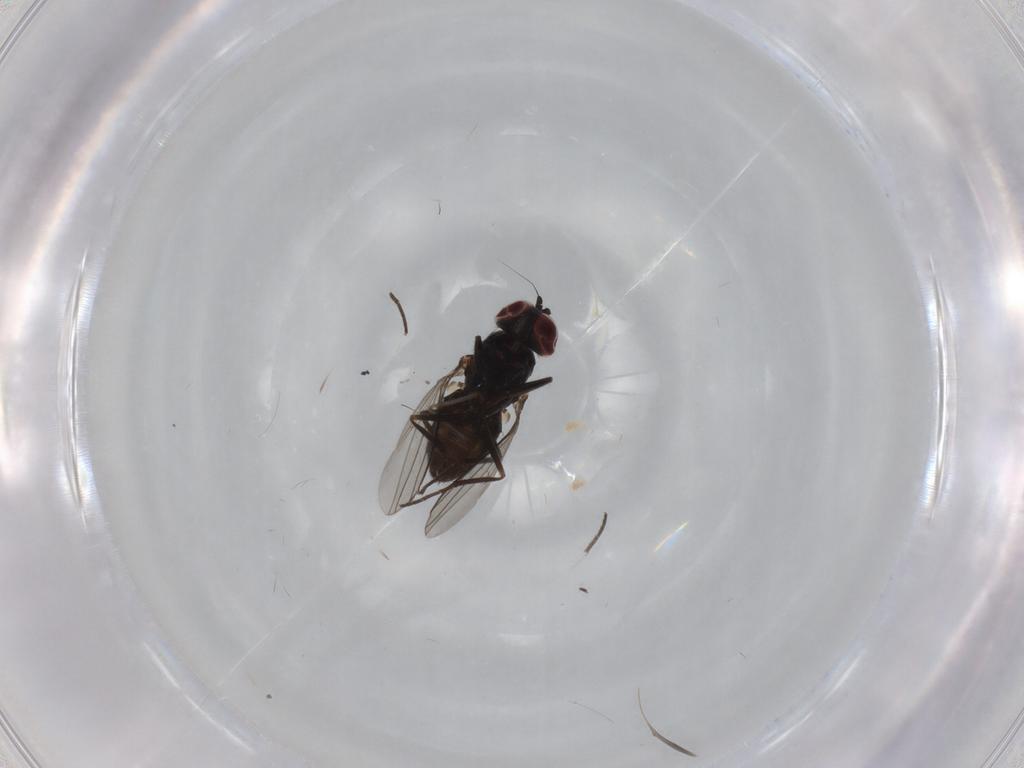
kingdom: Animalia
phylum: Arthropoda
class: Insecta
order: Diptera
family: Dolichopodidae
